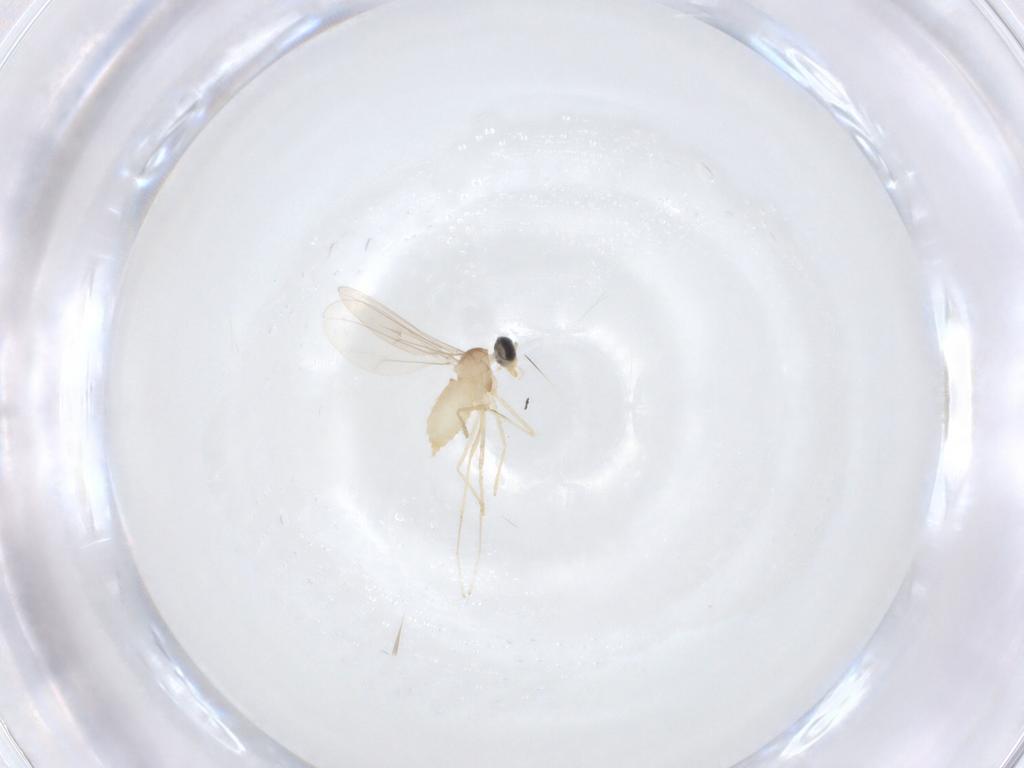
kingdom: Animalia
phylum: Arthropoda
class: Insecta
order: Diptera
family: Cecidomyiidae
